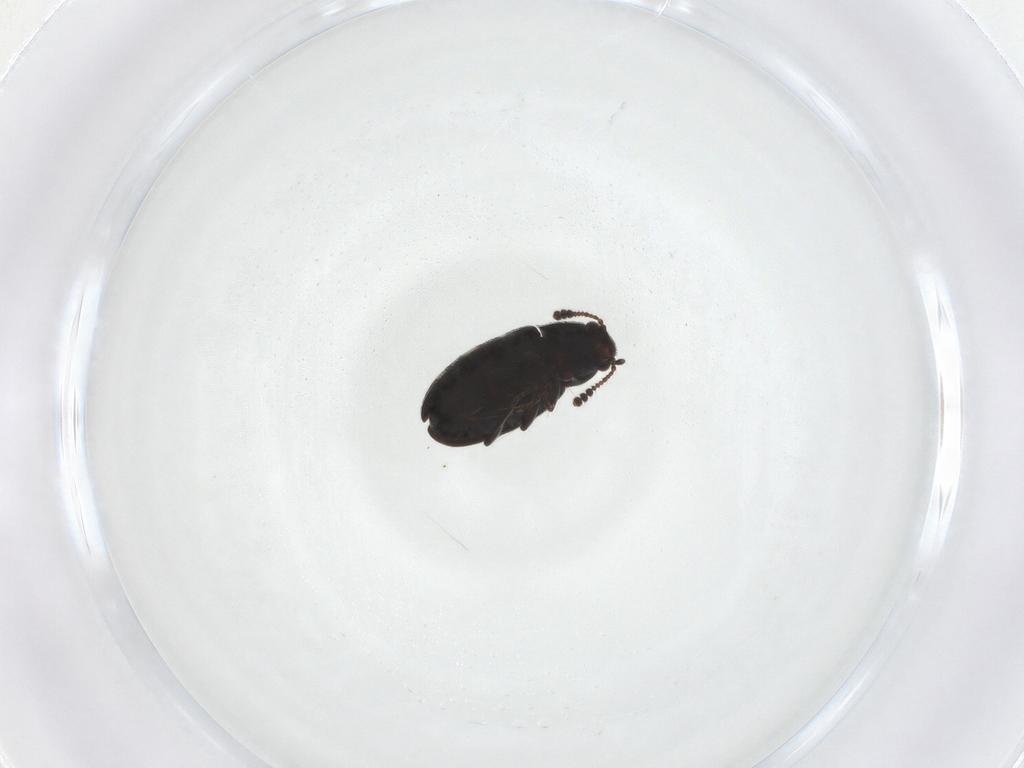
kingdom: Animalia
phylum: Arthropoda
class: Insecta
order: Coleoptera
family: Mycetophagidae
